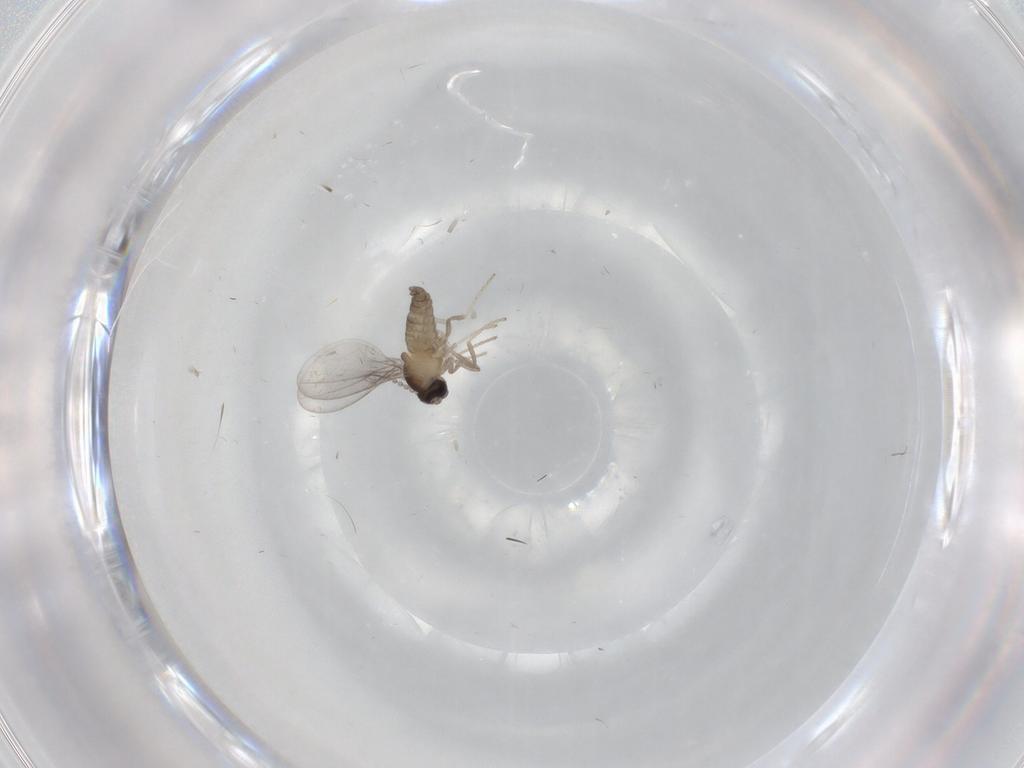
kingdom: Animalia
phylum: Arthropoda
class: Insecta
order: Diptera
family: Cecidomyiidae
